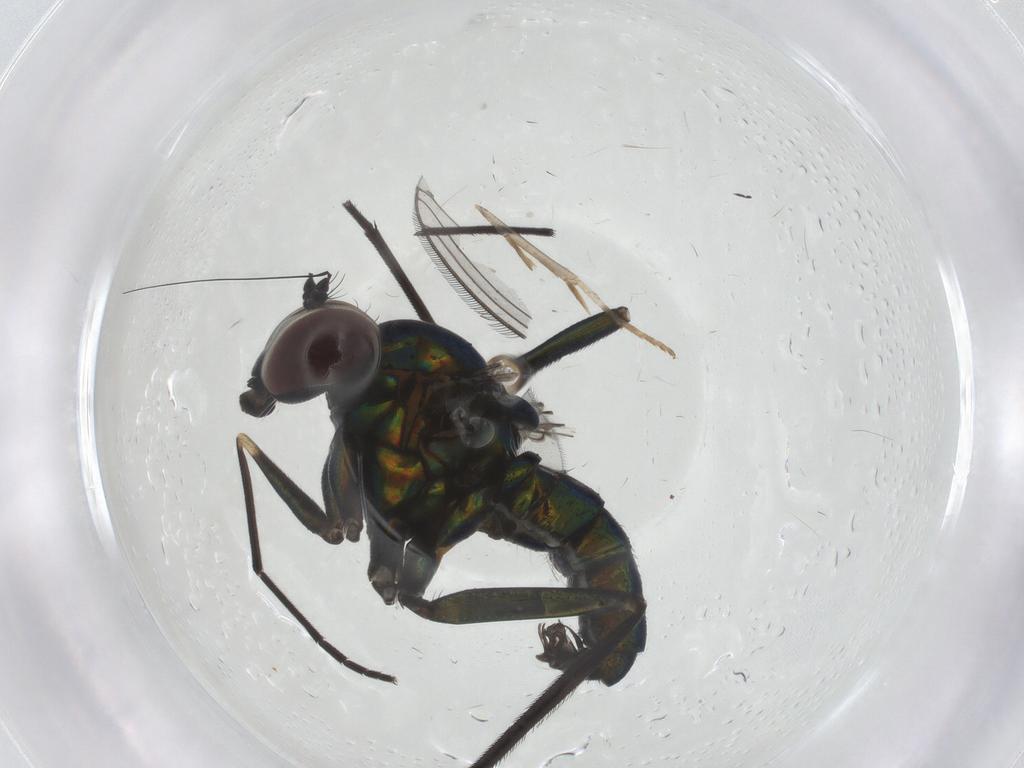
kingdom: Animalia
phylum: Arthropoda
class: Insecta
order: Diptera
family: Dolichopodidae
